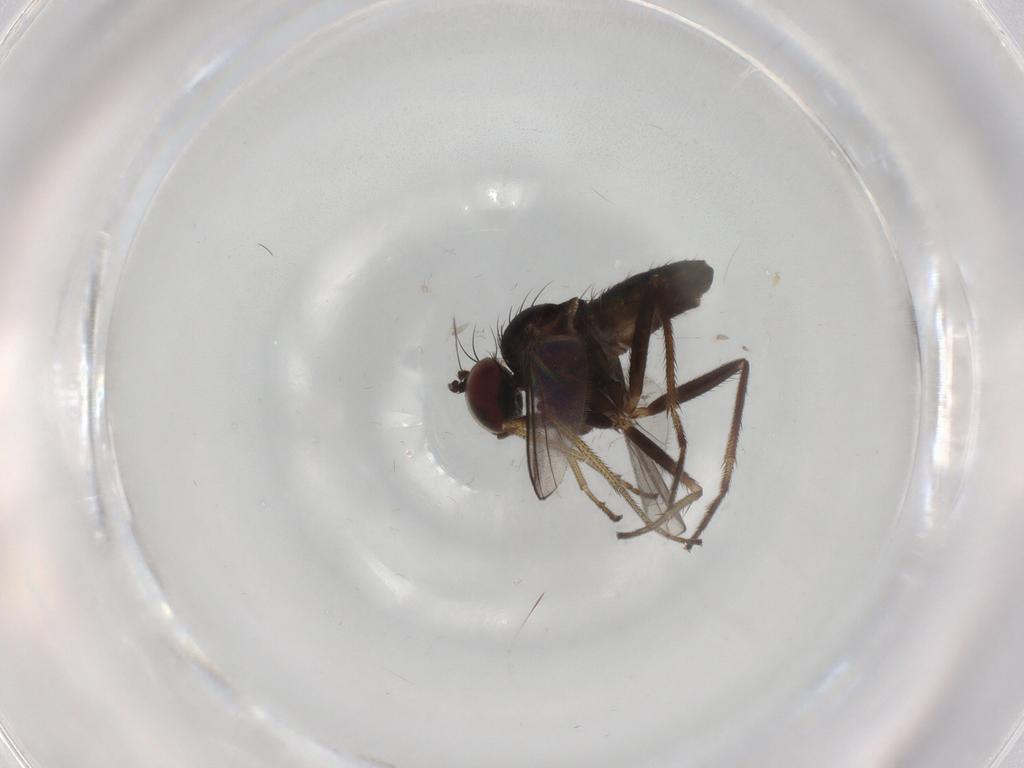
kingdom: Animalia
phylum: Arthropoda
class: Insecta
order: Diptera
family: Dolichopodidae
